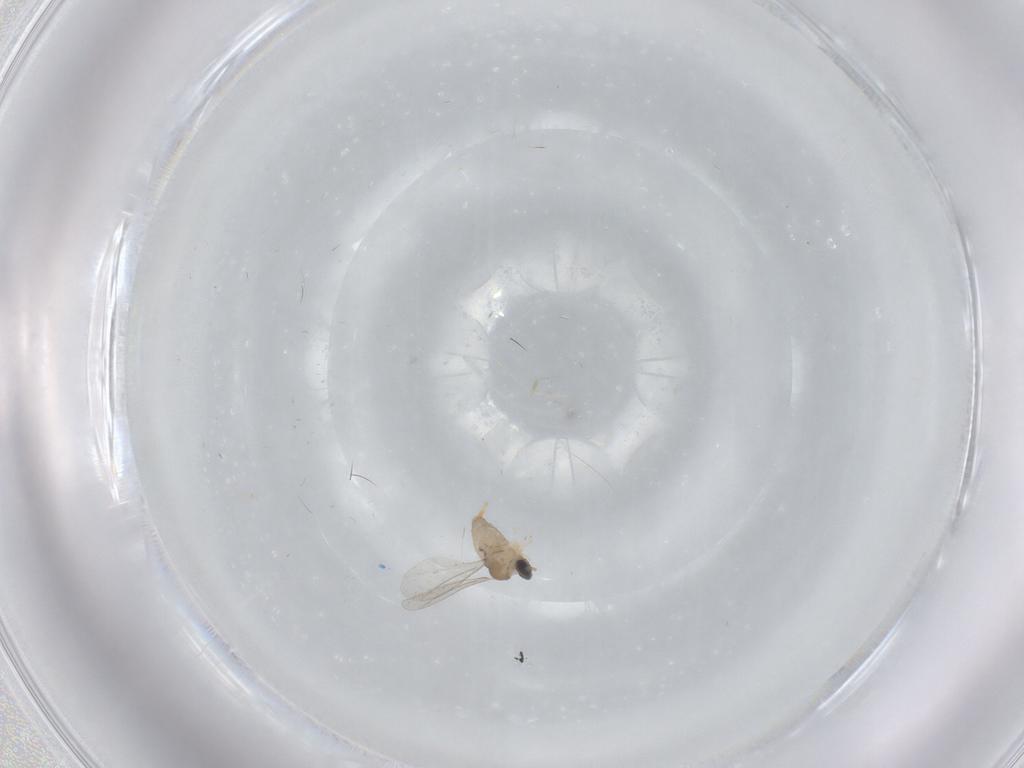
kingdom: Animalia
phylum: Arthropoda
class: Insecta
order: Diptera
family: Cecidomyiidae
